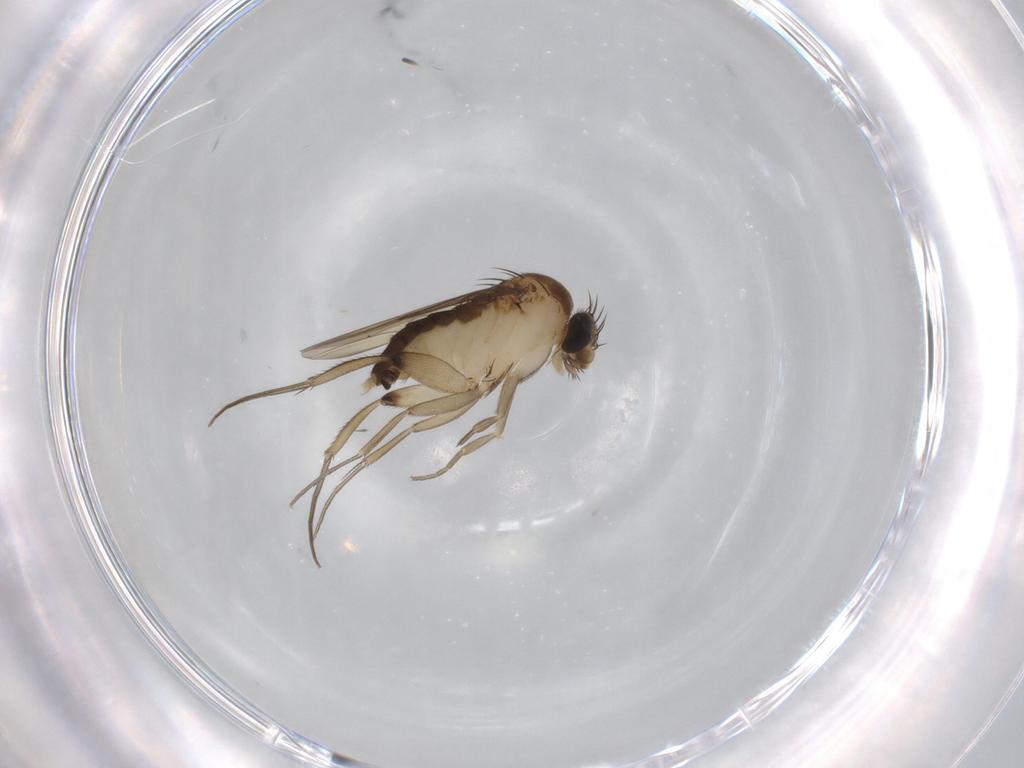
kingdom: Animalia
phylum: Arthropoda
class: Insecta
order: Diptera
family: Phoridae
